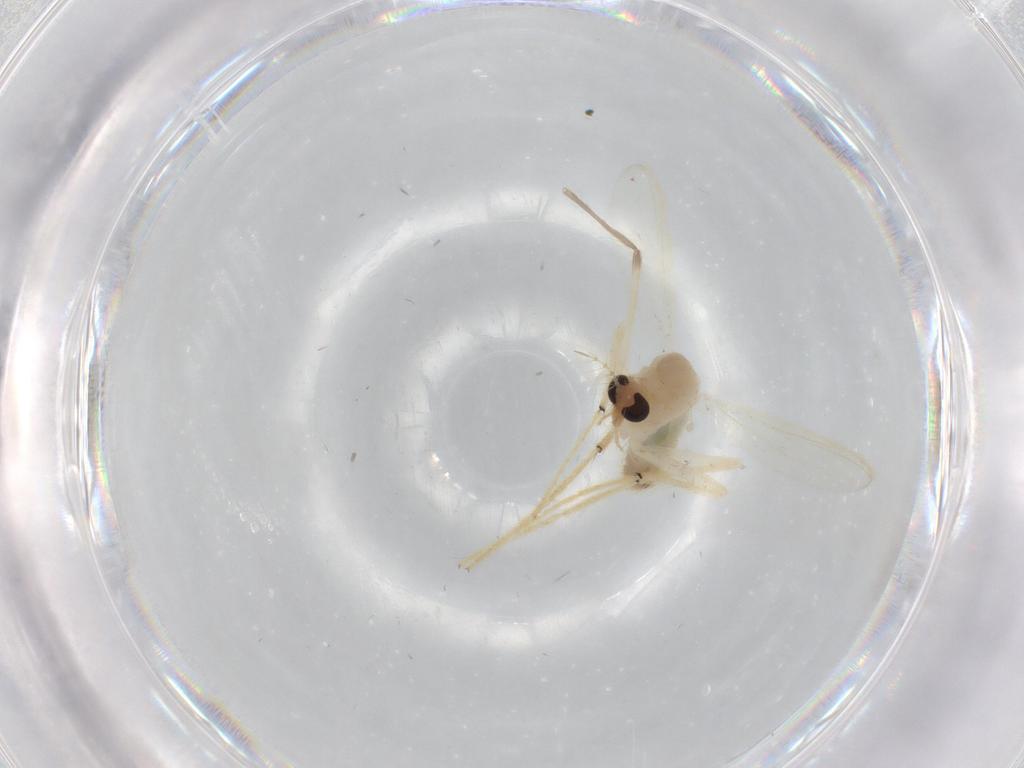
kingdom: Animalia
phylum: Arthropoda
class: Insecta
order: Diptera
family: Chironomidae
